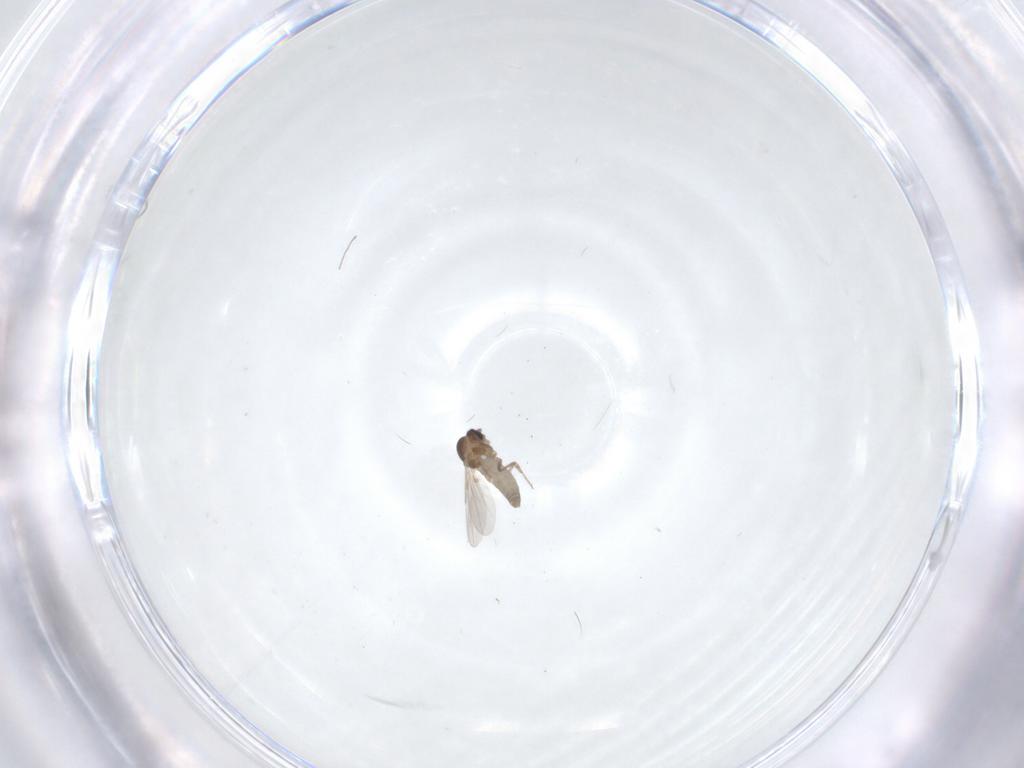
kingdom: Animalia
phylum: Arthropoda
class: Insecta
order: Diptera
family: Ceratopogonidae
